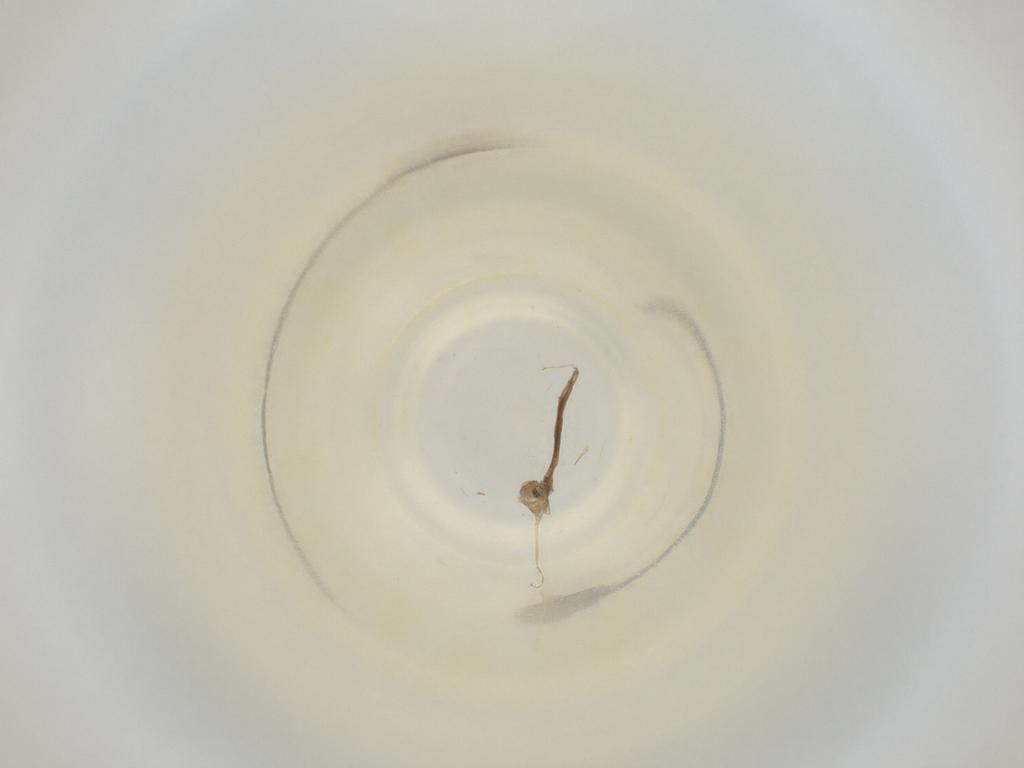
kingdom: Animalia
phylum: Arthropoda
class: Insecta
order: Diptera
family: Cecidomyiidae
